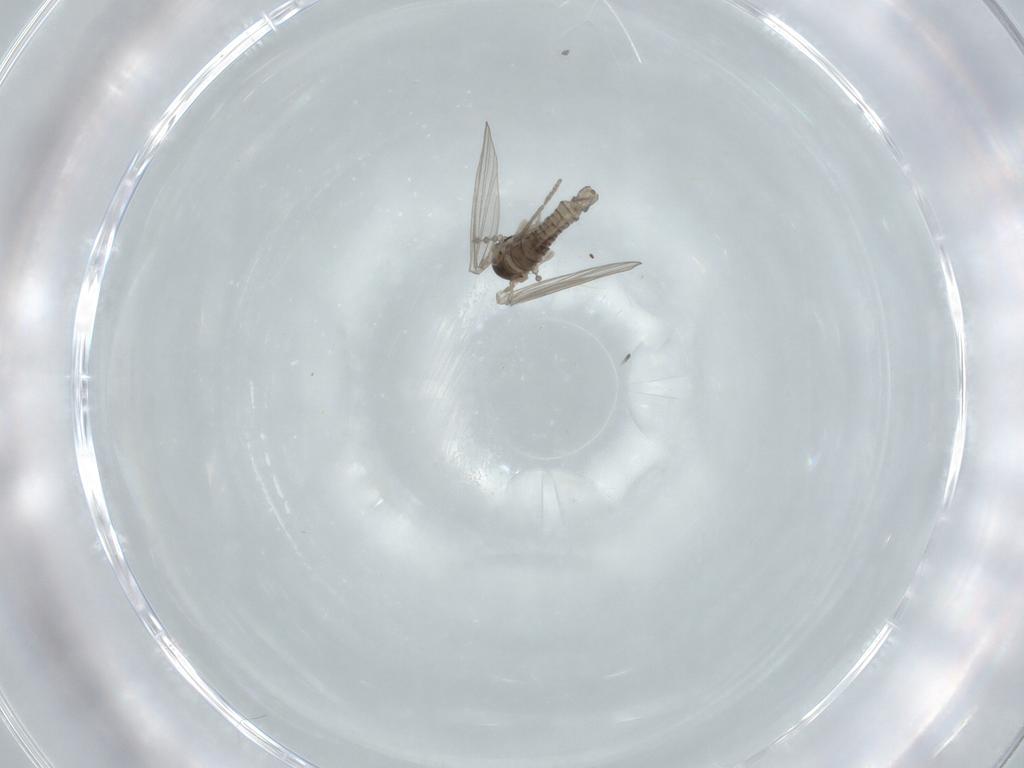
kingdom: Animalia
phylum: Arthropoda
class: Insecta
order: Diptera
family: Psychodidae
